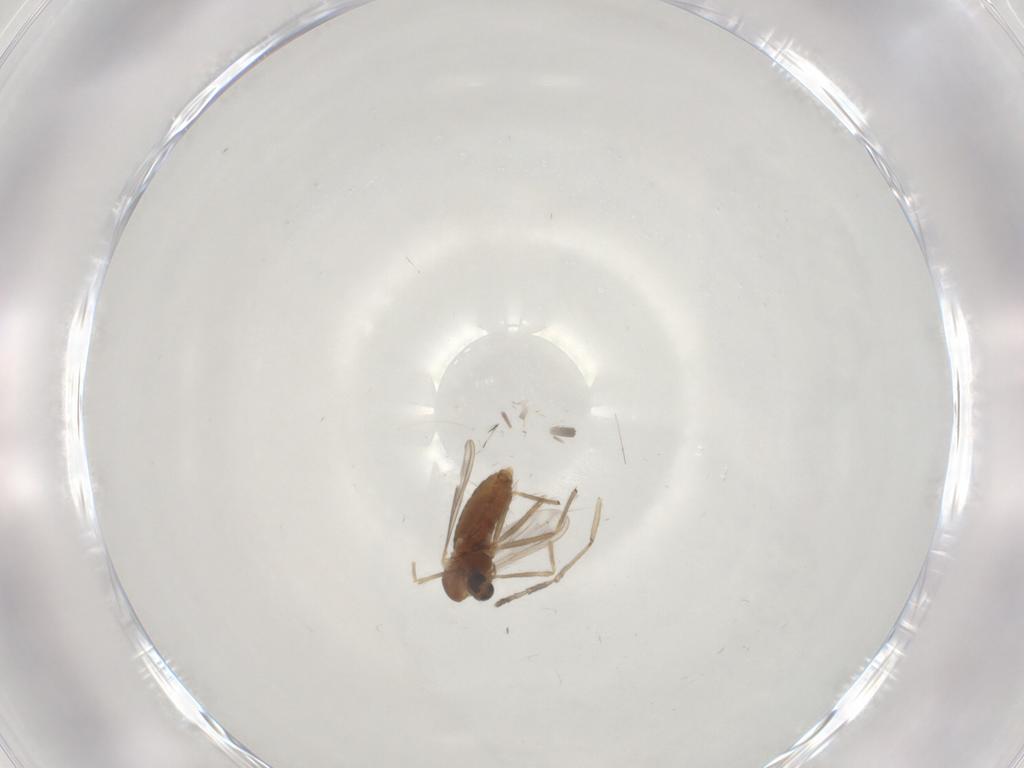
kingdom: Animalia
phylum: Arthropoda
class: Insecta
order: Diptera
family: Chironomidae
